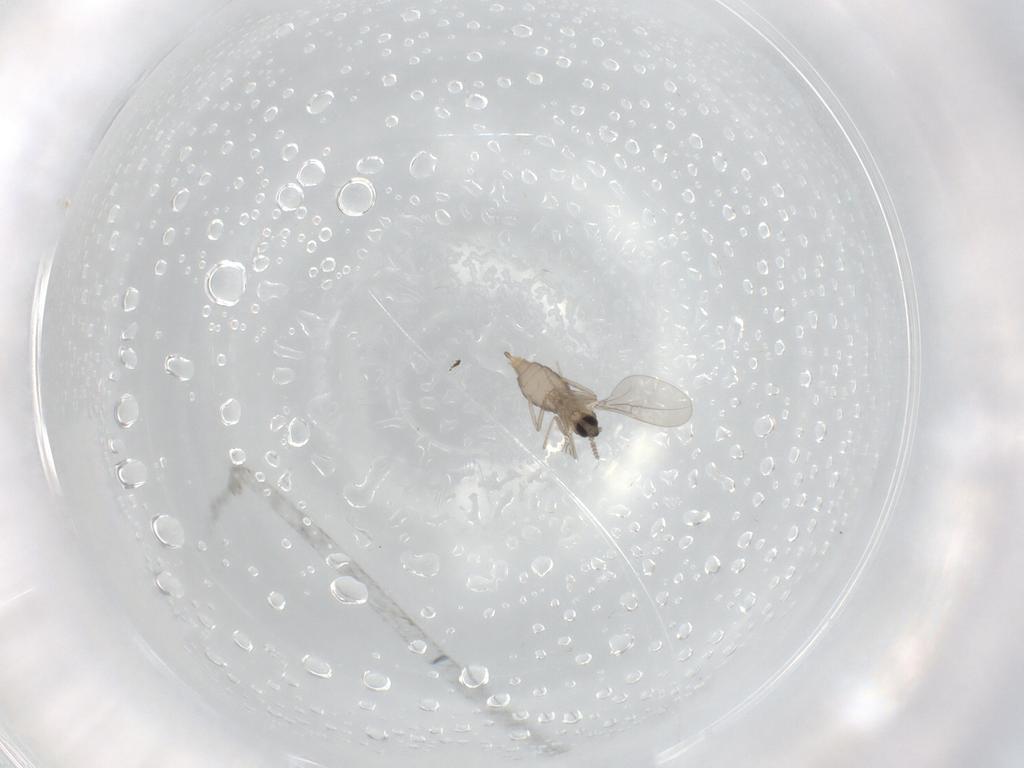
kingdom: Animalia
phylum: Arthropoda
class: Insecta
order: Diptera
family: Cecidomyiidae
